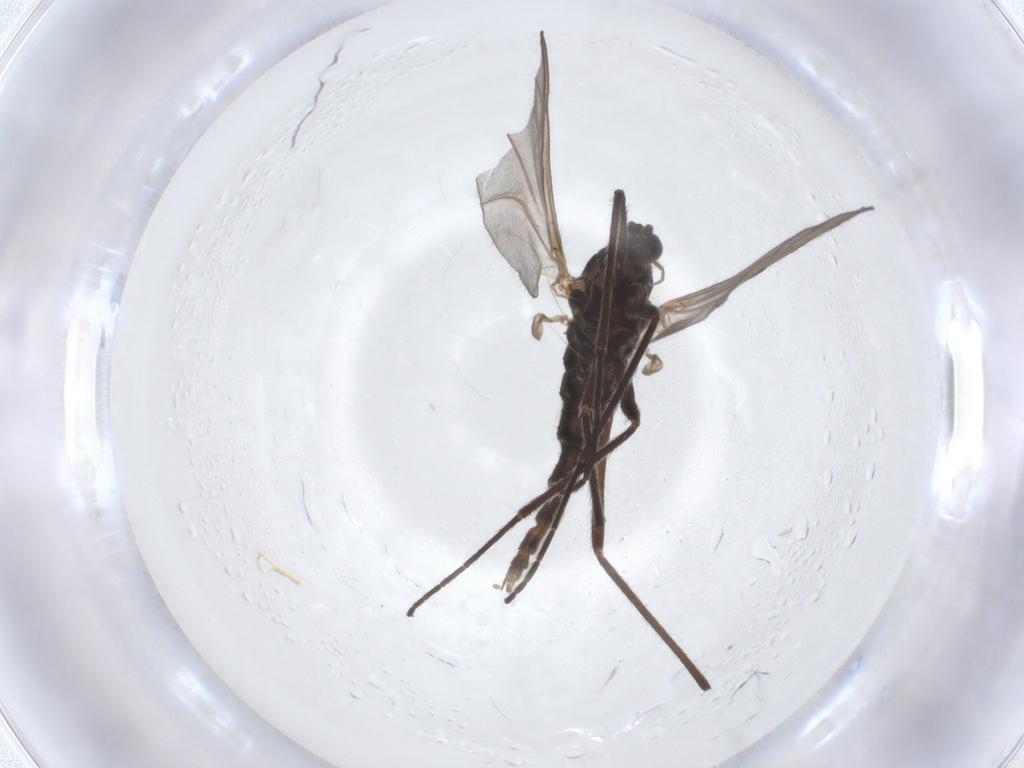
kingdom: Animalia
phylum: Arthropoda
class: Insecta
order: Diptera
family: Cecidomyiidae
